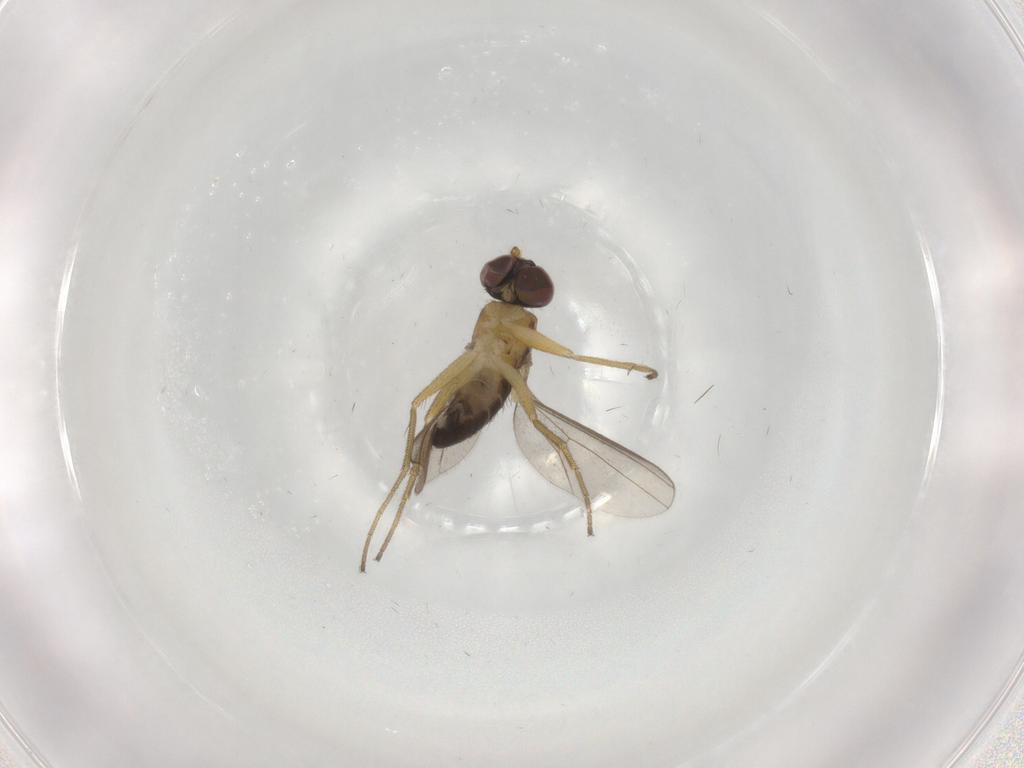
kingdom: Animalia
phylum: Arthropoda
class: Insecta
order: Diptera
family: Chloropidae
